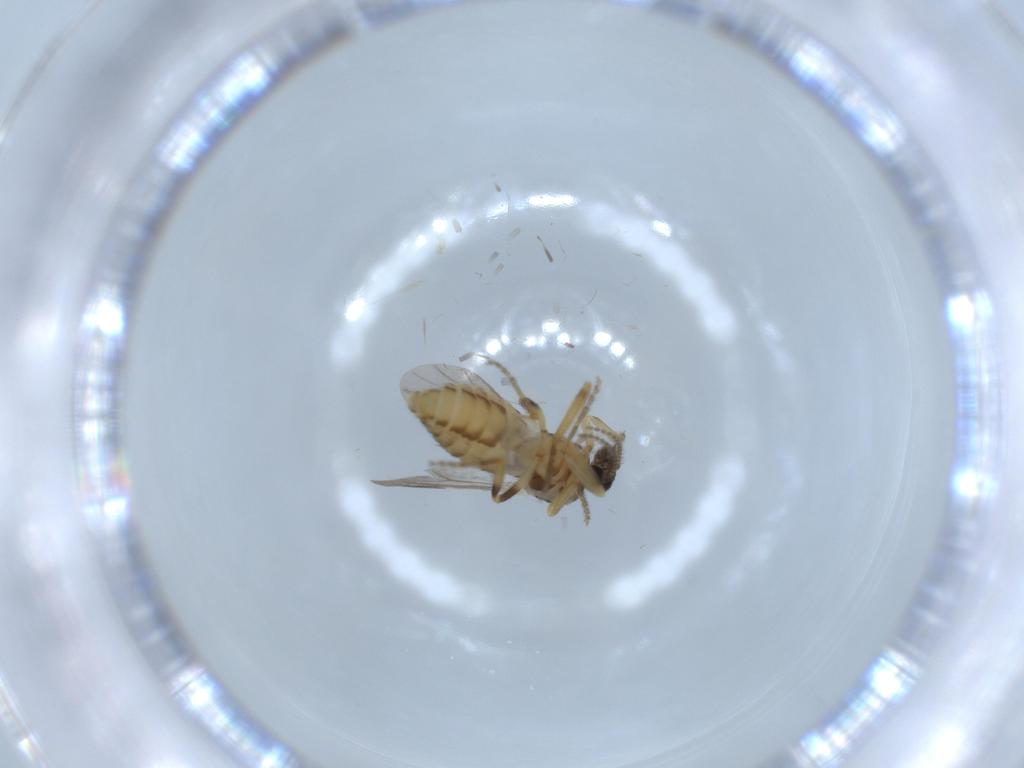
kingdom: Animalia
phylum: Arthropoda
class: Insecta
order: Diptera
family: Ceratopogonidae
